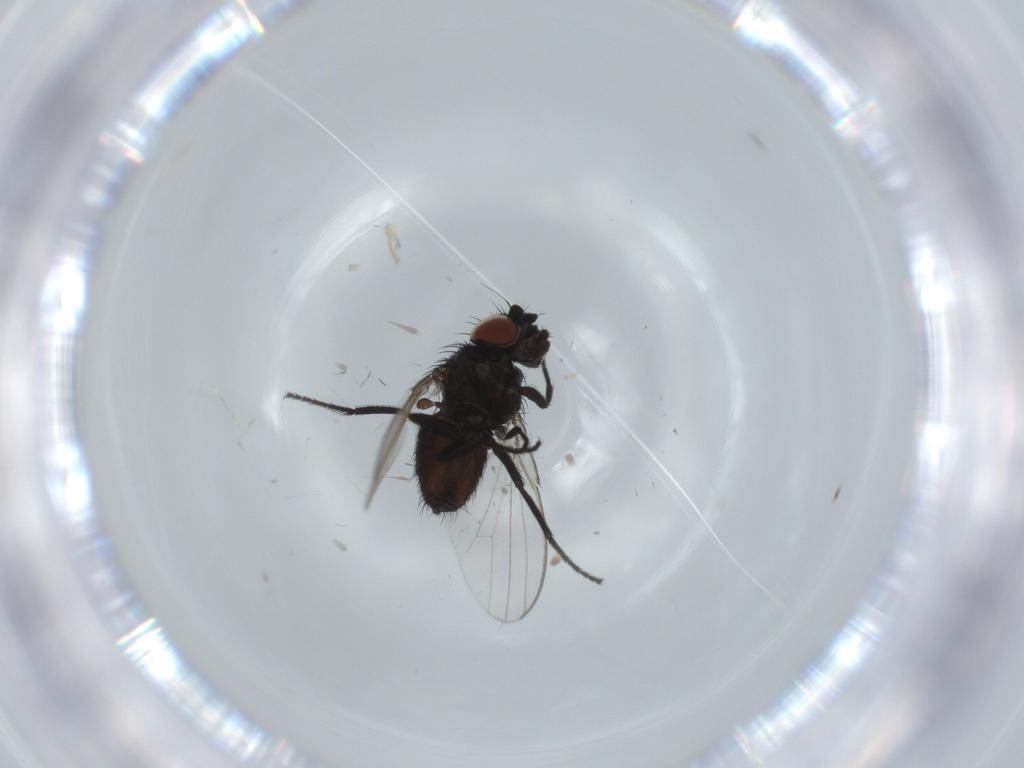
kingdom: Animalia
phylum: Arthropoda
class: Insecta
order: Diptera
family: Milichiidae
